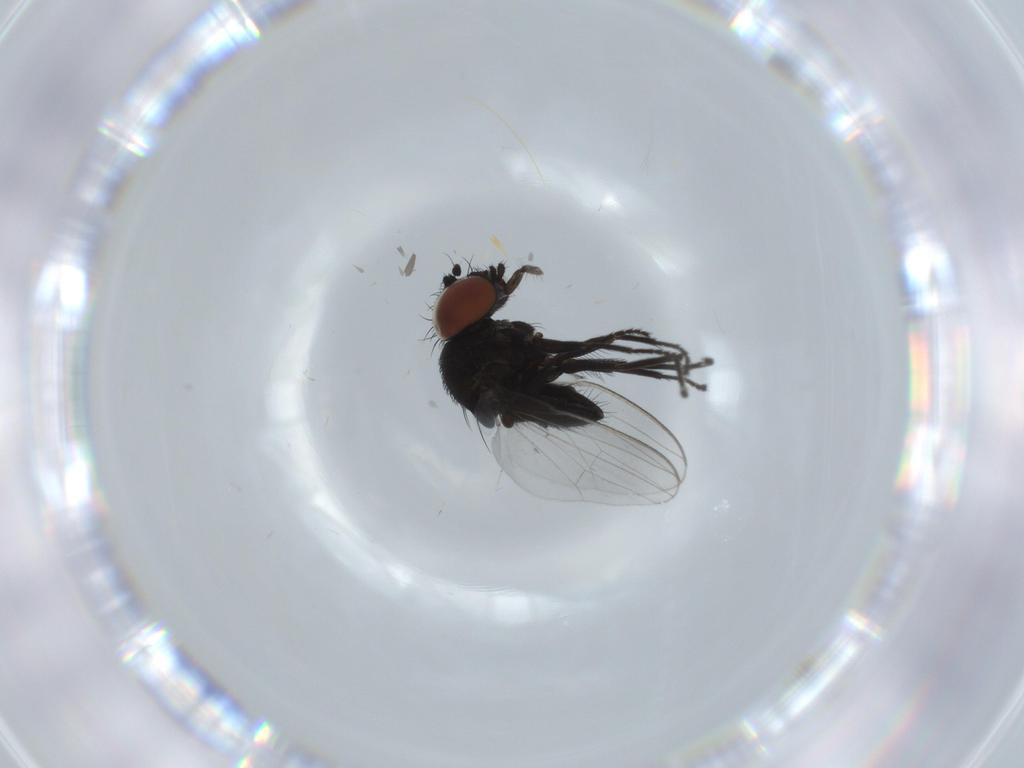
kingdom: Animalia
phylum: Arthropoda
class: Insecta
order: Diptera
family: Milichiidae
